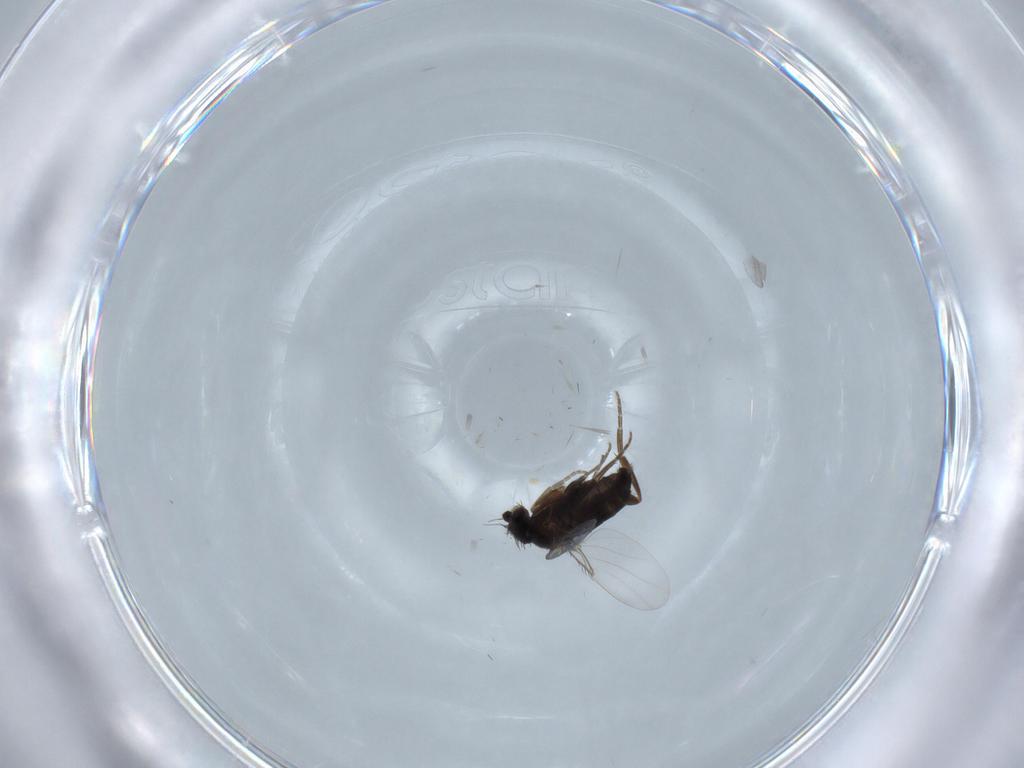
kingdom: Animalia
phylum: Arthropoda
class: Insecta
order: Diptera
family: Phoridae
